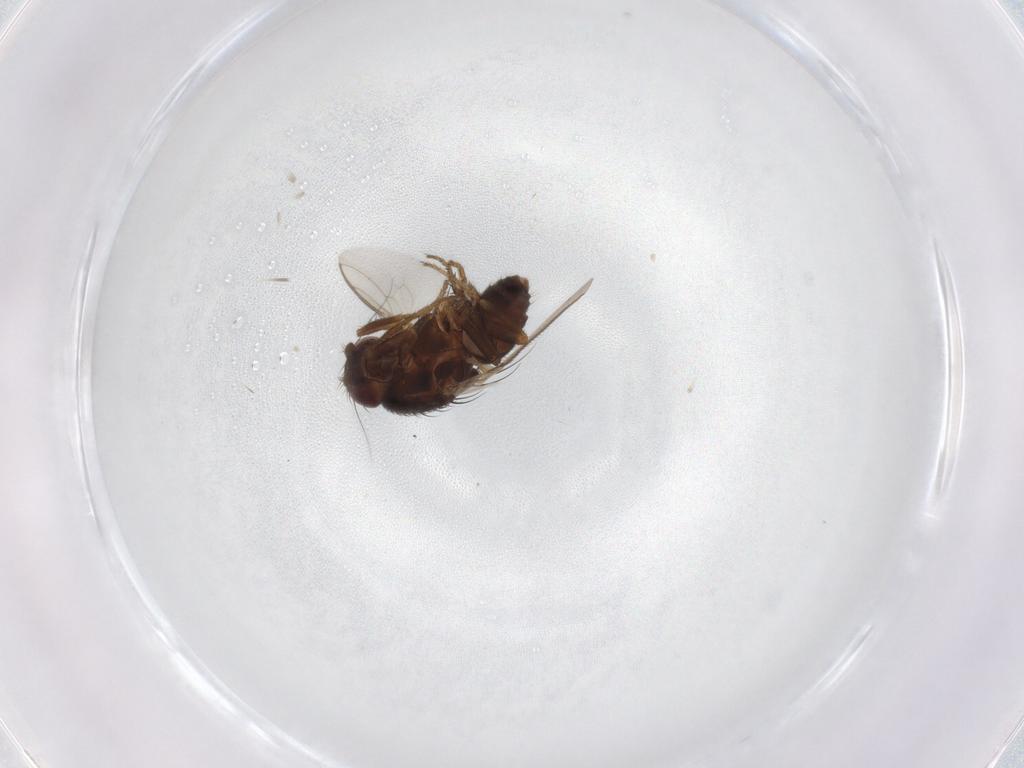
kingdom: Animalia
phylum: Arthropoda
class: Insecta
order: Diptera
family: Sphaeroceridae
